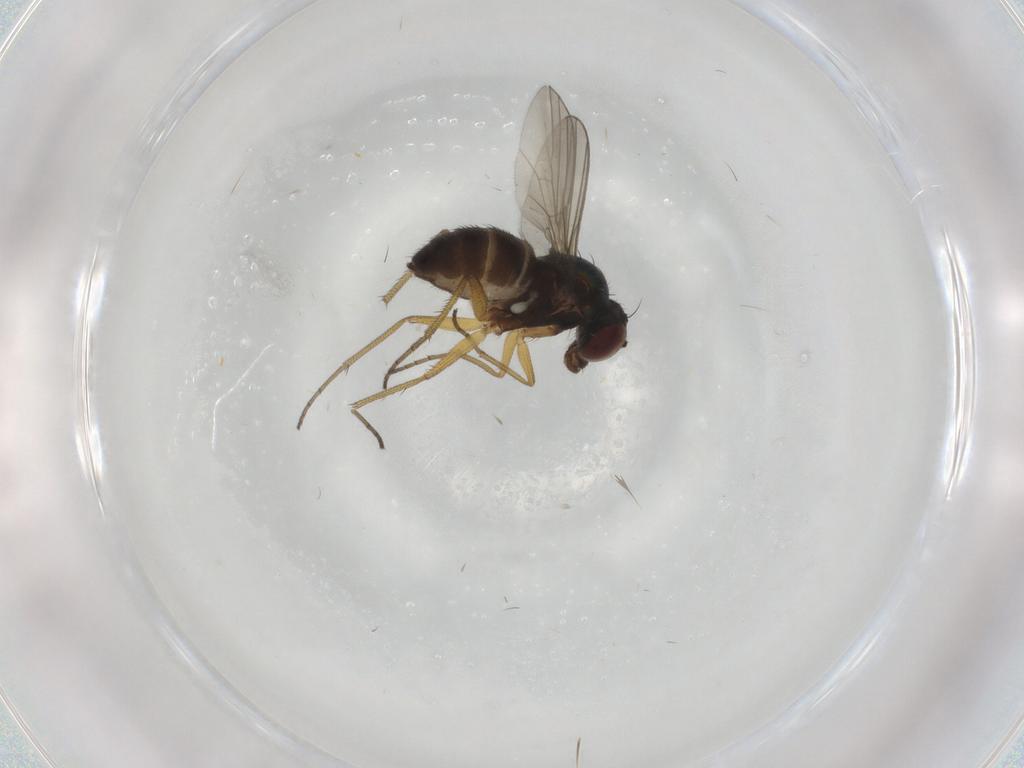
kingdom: Animalia
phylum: Arthropoda
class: Insecta
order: Diptera
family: Dolichopodidae
